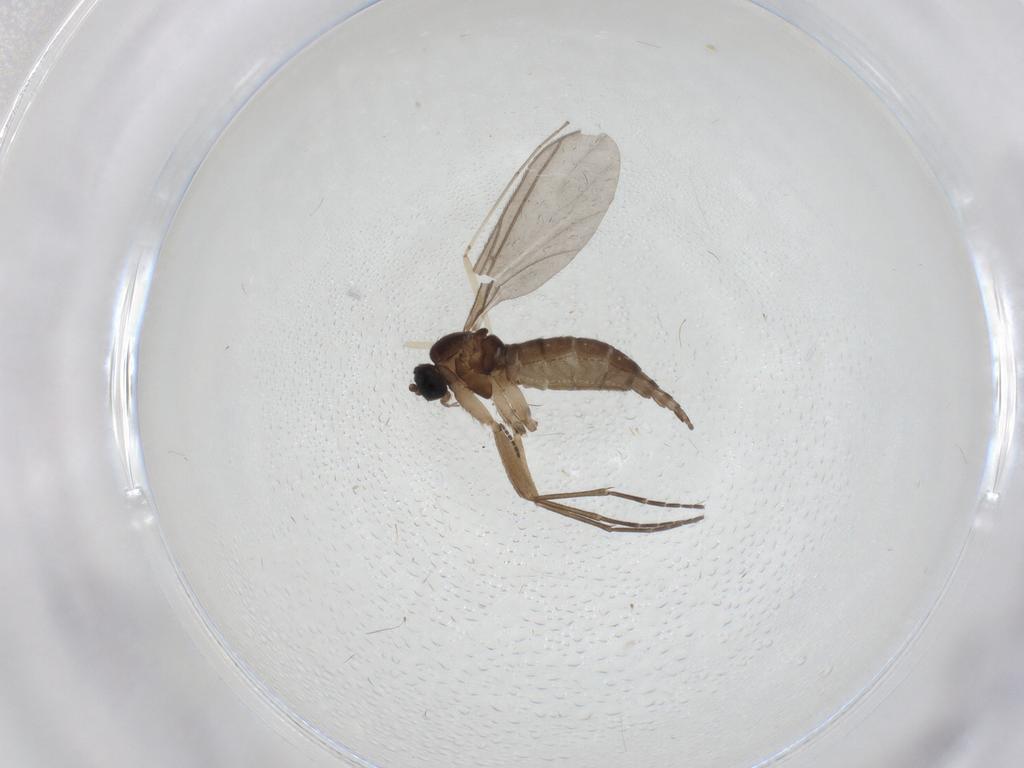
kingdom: Animalia
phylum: Arthropoda
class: Insecta
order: Diptera
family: Sciaridae
